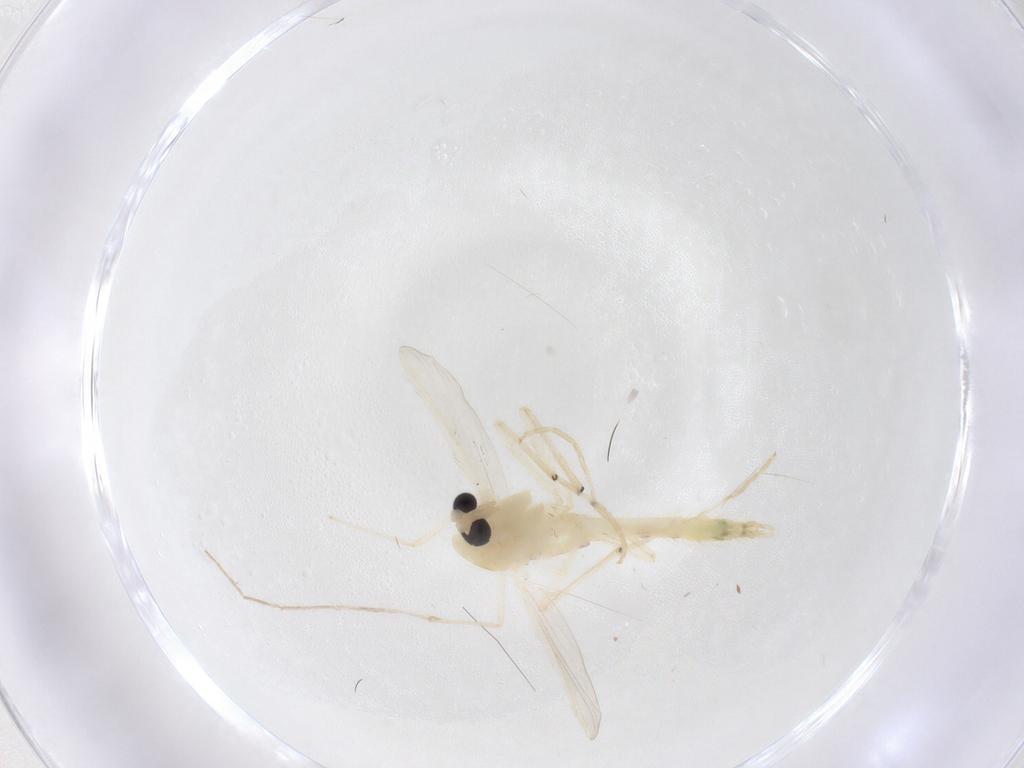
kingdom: Animalia
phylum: Arthropoda
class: Insecta
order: Diptera
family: Chironomidae
